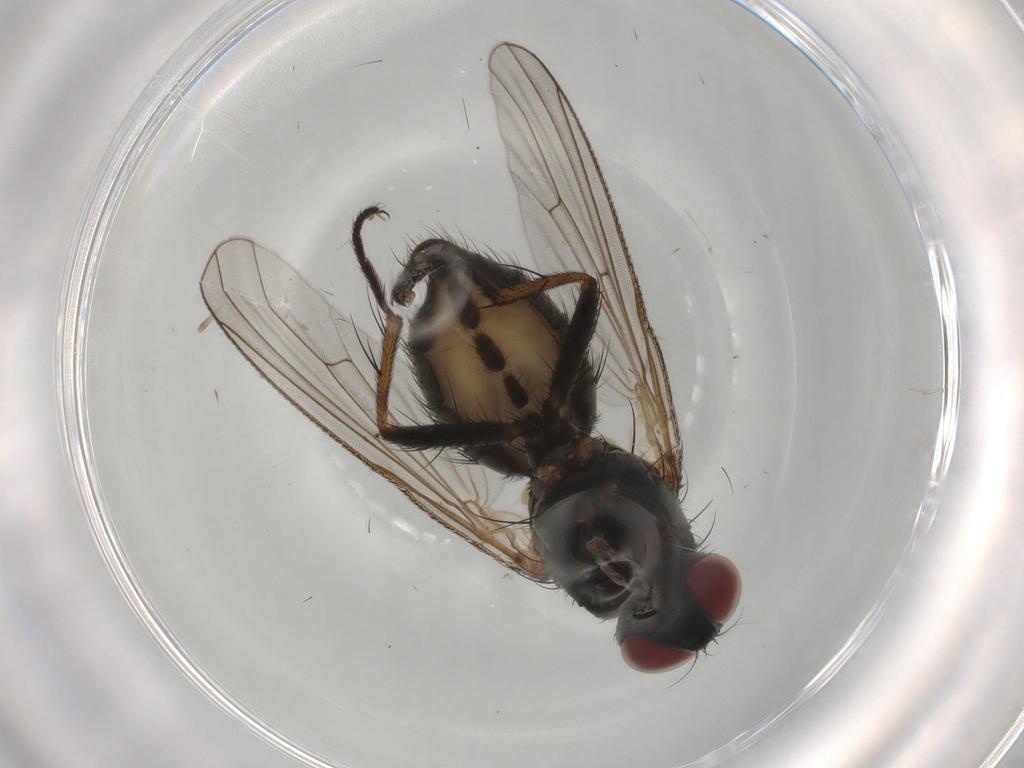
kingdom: Animalia
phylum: Arthropoda
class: Insecta
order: Diptera
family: Muscidae
